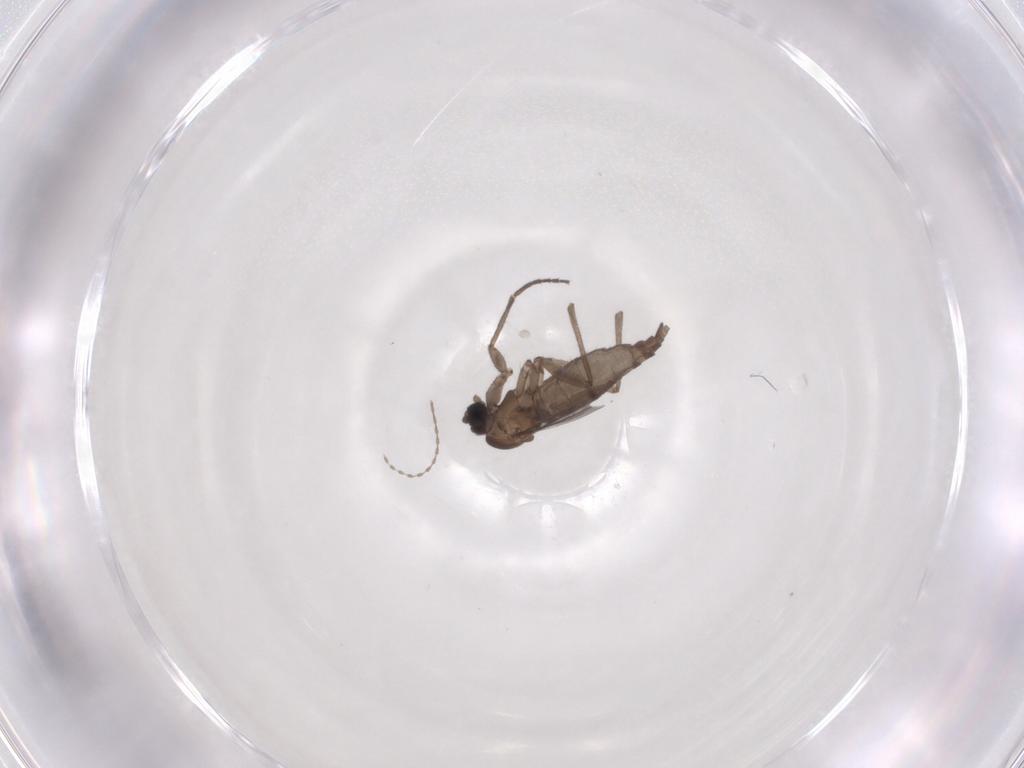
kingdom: Animalia
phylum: Arthropoda
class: Insecta
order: Diptera
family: Sciaridae
